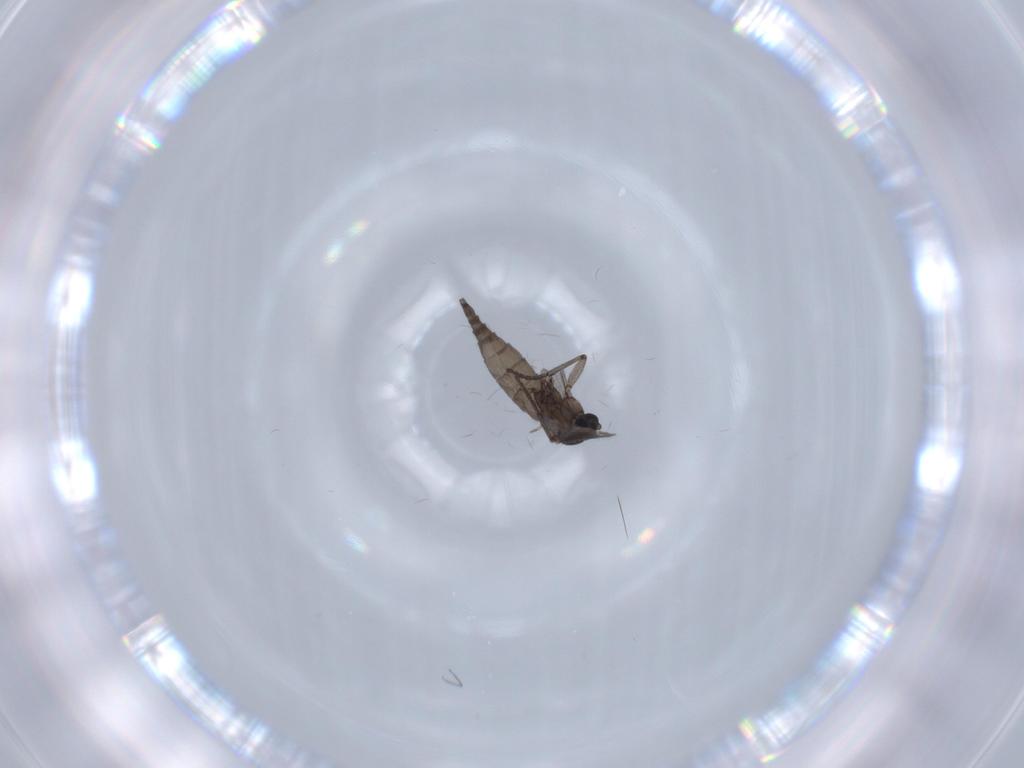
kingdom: Animalia
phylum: Arthropoda
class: Insecta
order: Diptera
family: Sciaridae
